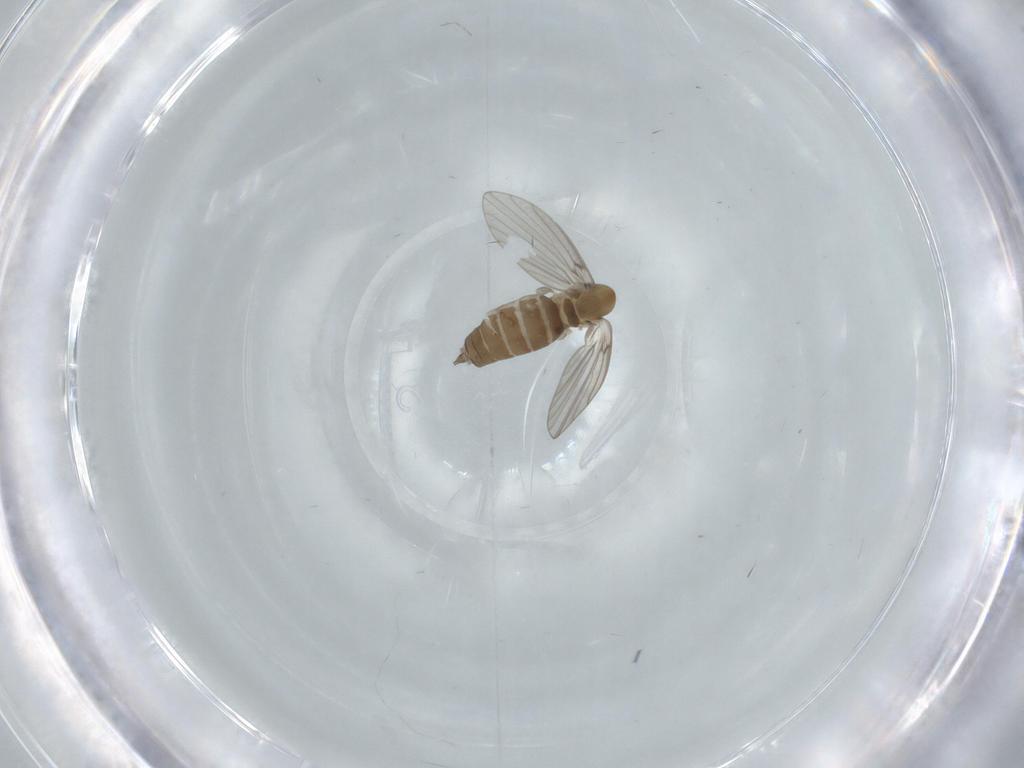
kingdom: Animalia
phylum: Arthropoda
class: Insecta
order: Diptera
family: Psychodidae
